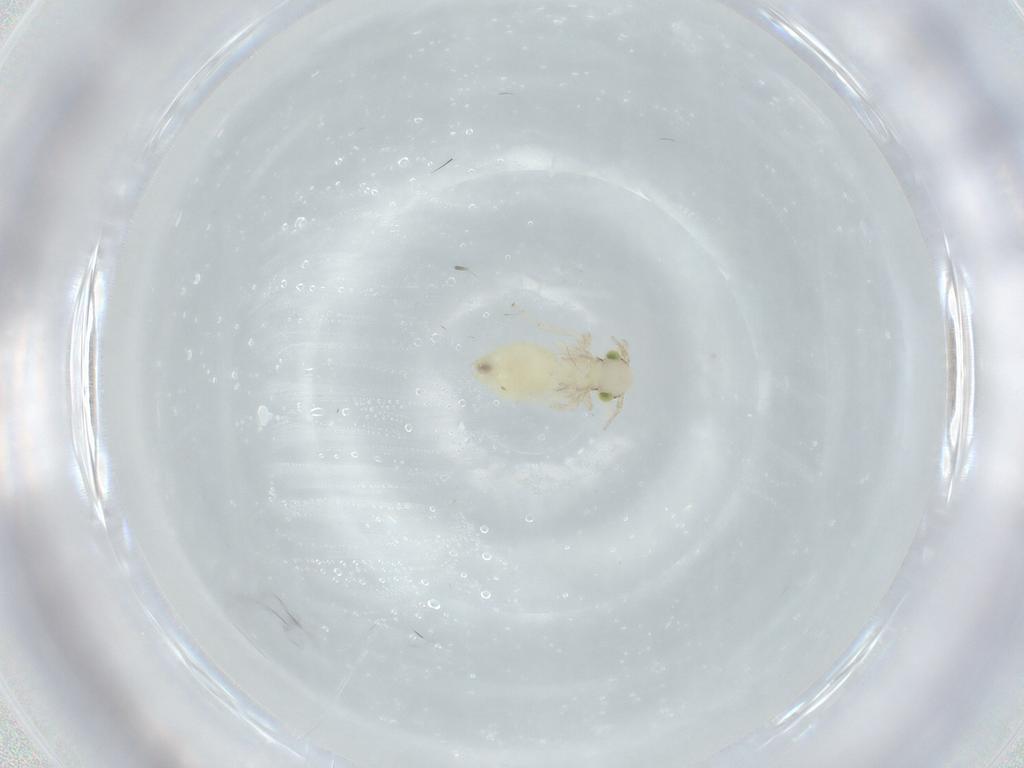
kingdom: Animalia
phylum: Arthropoda
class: Insecta
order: Psocodea
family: Lepidopsocidae
